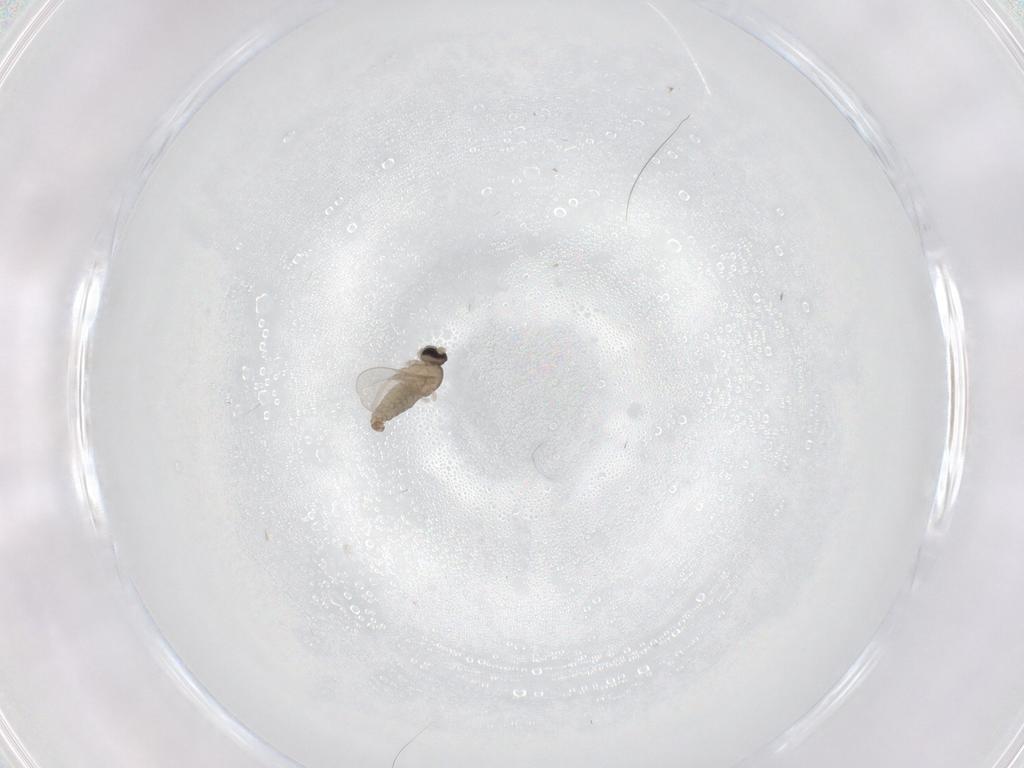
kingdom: Animalia
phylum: Arthropoda
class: Insecta
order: Diptera
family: Cecidomyiidae
